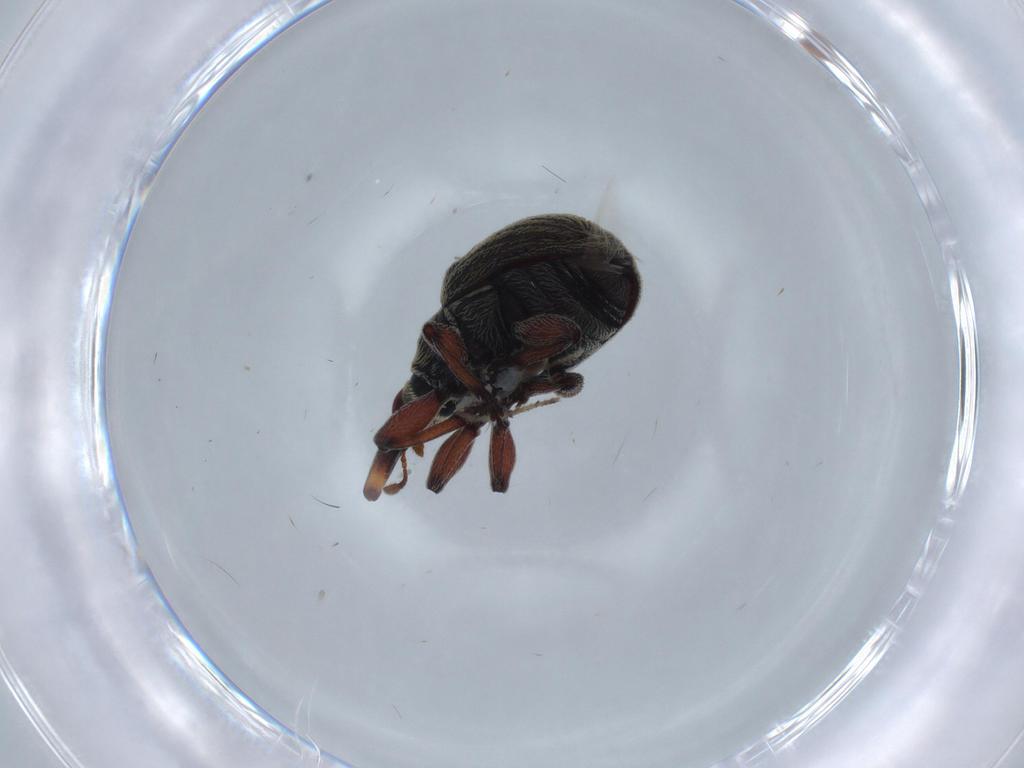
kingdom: Animalia
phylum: Arthropoda
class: Insecta
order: Coleoptera
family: Brentidae
